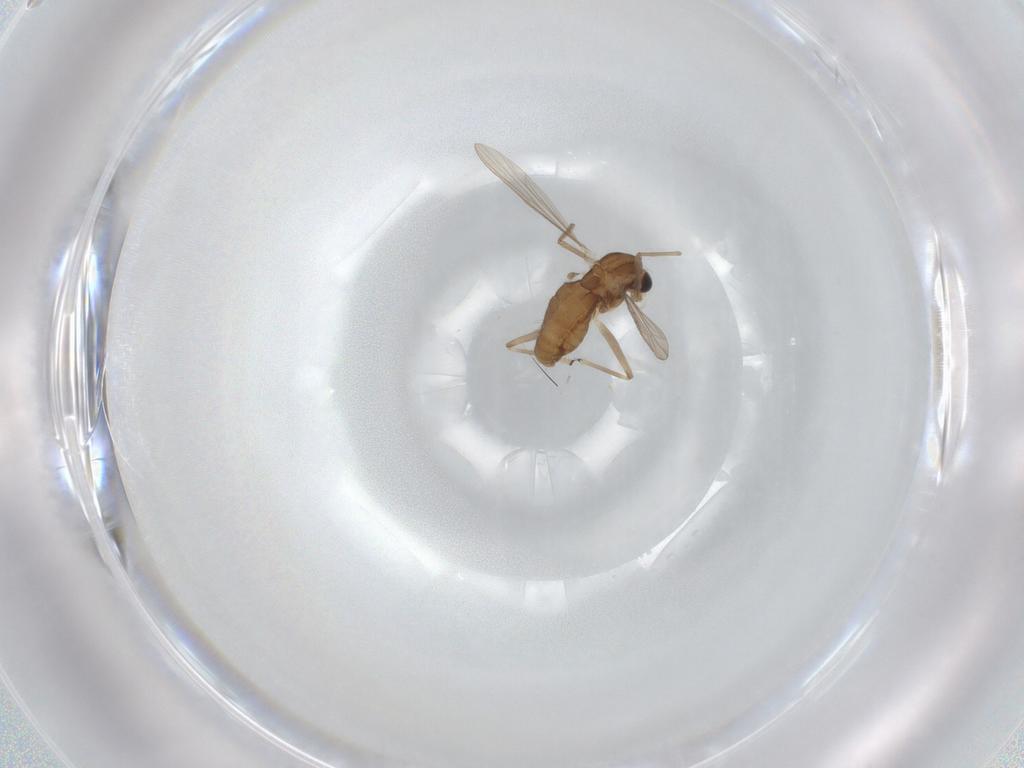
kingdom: Animalia
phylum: Arthropoda
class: Insecta
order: Diptera
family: Chironomidae
